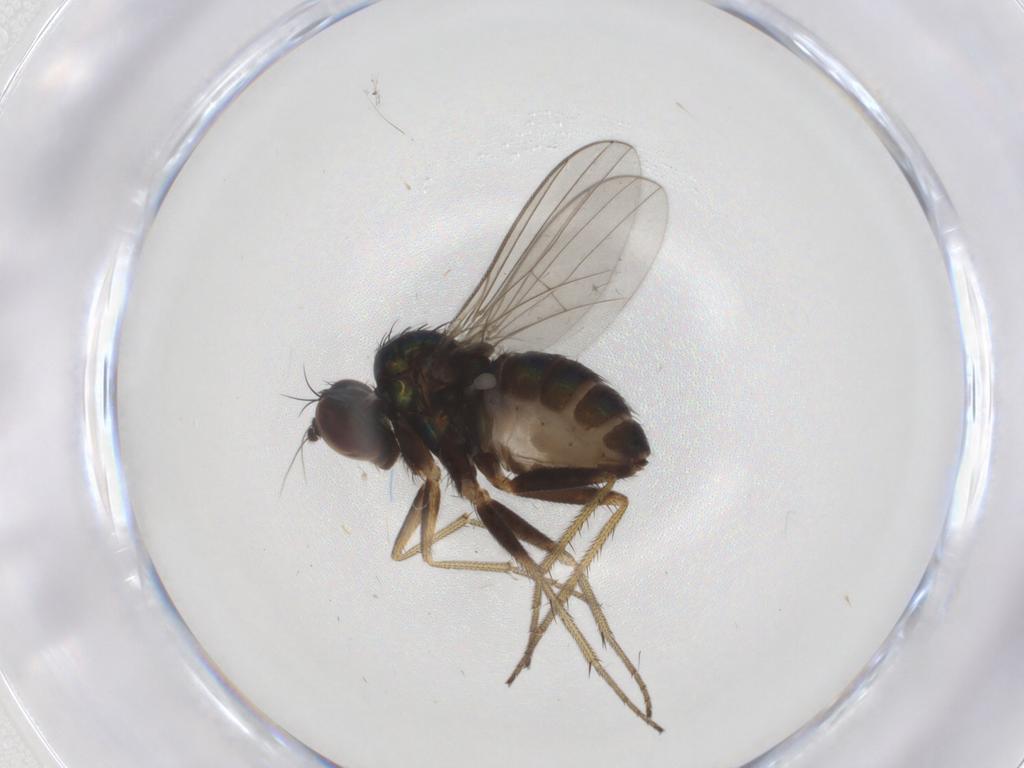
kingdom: Animalia
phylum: Arthropoda
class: Insecta
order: Diptera
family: Dolichopodidae
